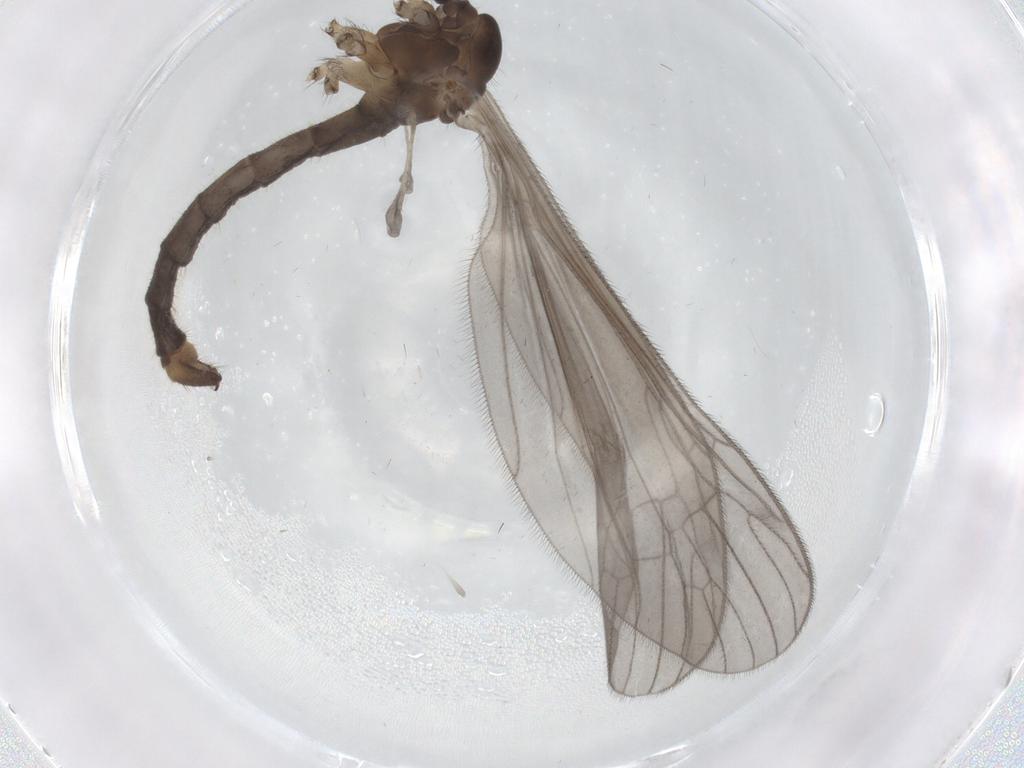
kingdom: Animalia
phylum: Arthropoda
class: Insecta
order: Diptera
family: Limoniidae
